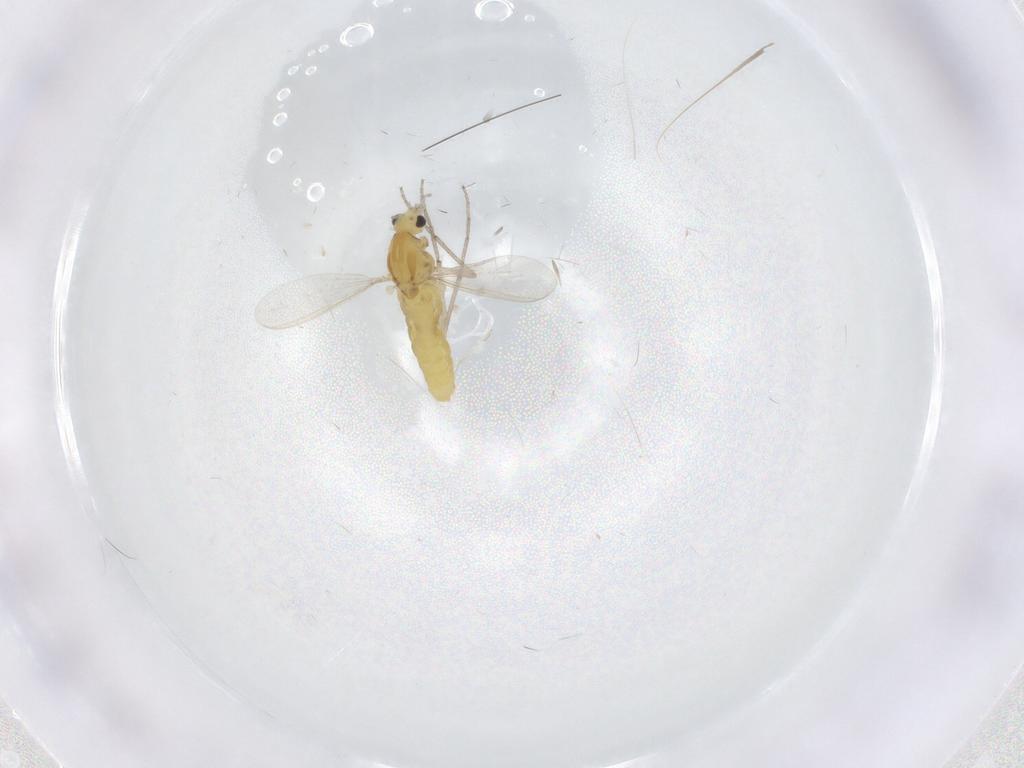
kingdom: Animalia
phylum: Arthropoda
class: Insecta
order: Diptera
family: Chironomidae
